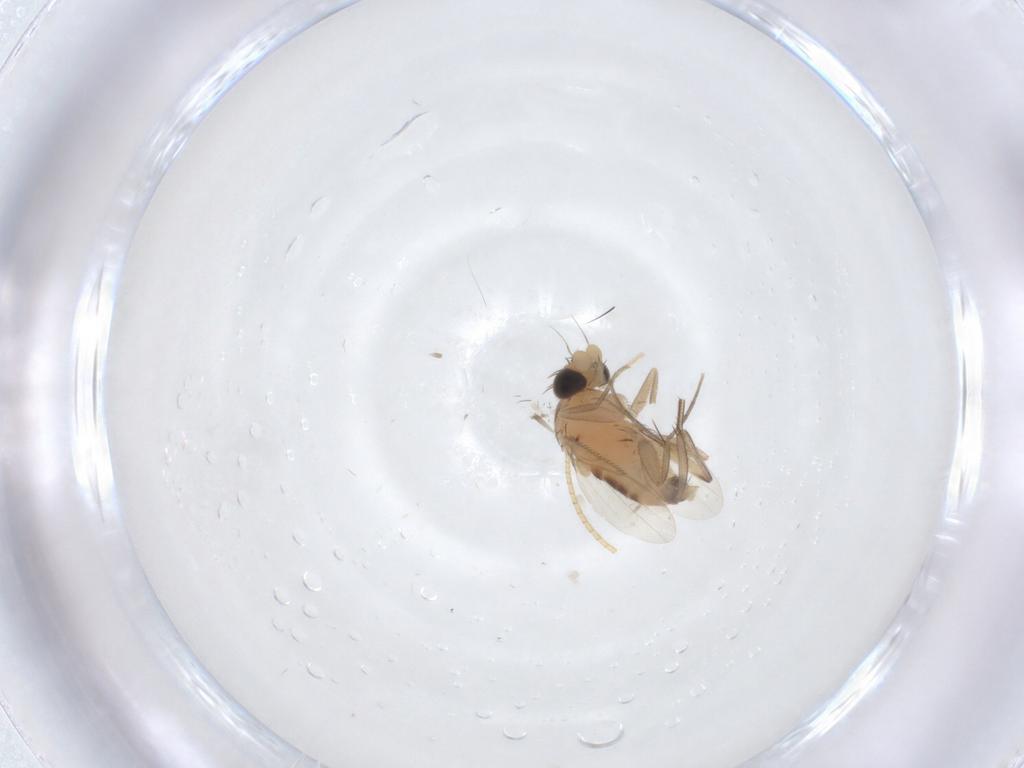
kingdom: Animalia
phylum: Arthropoda
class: Insecta
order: Diptera
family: Phoridae
